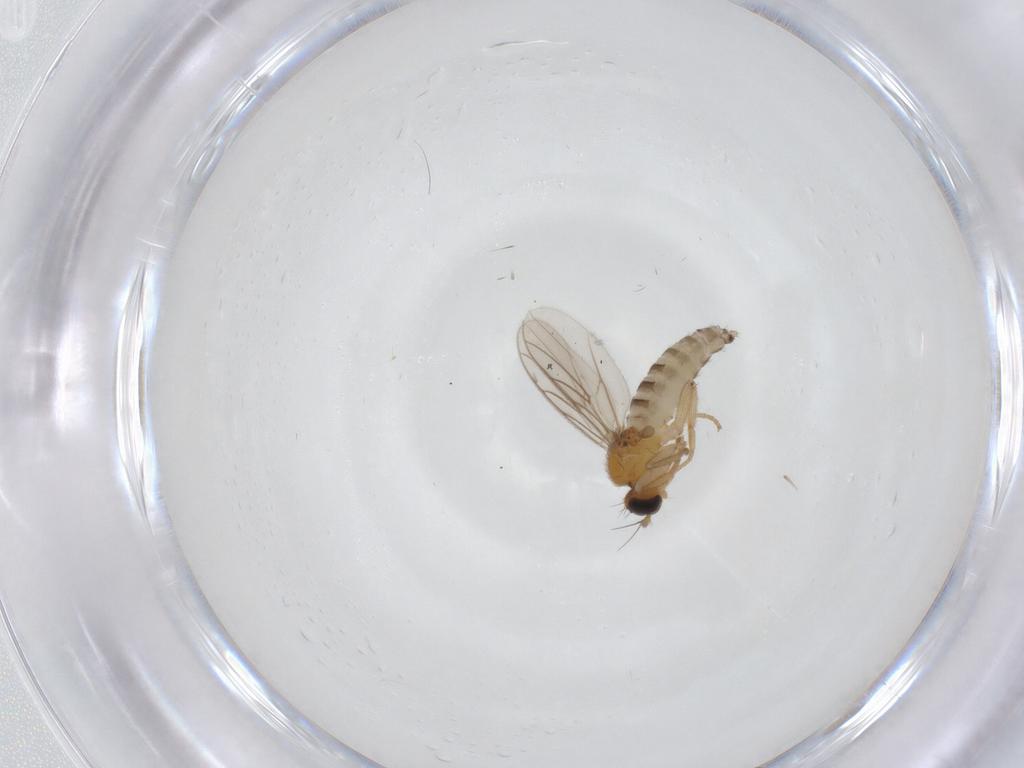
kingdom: Animalia
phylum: Arthropoda
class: Insecta
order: Diptera
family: Hybotidae
